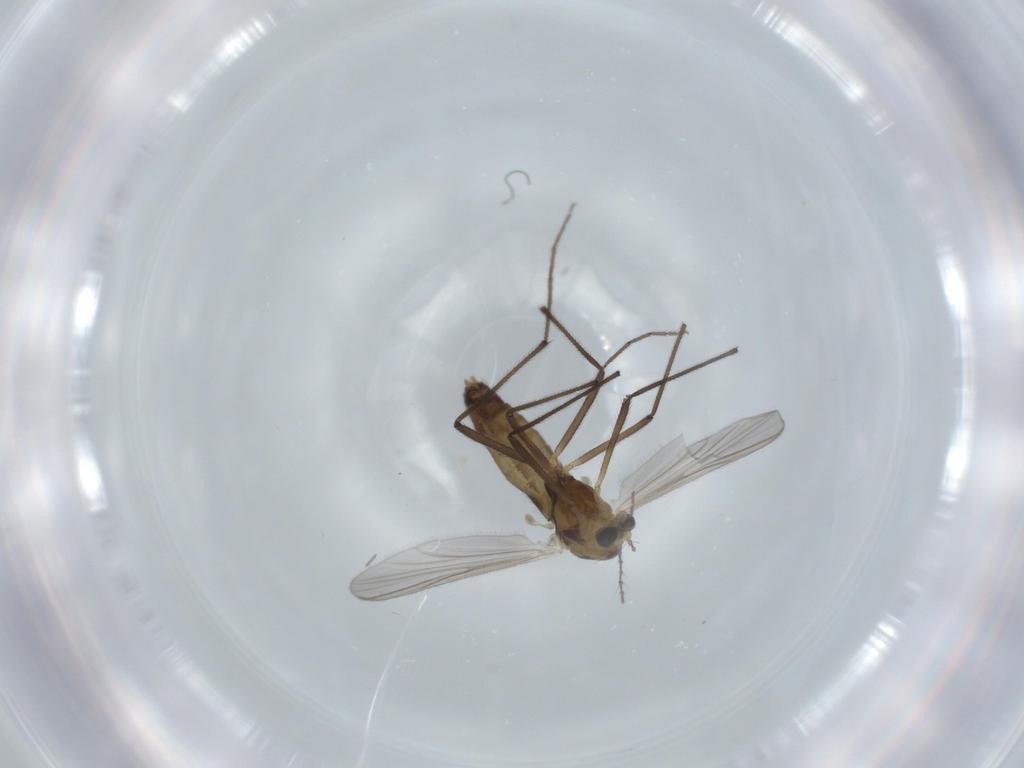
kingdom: Animalia
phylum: Arthropoda
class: Insecta
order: Diptera
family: Chironomidae
